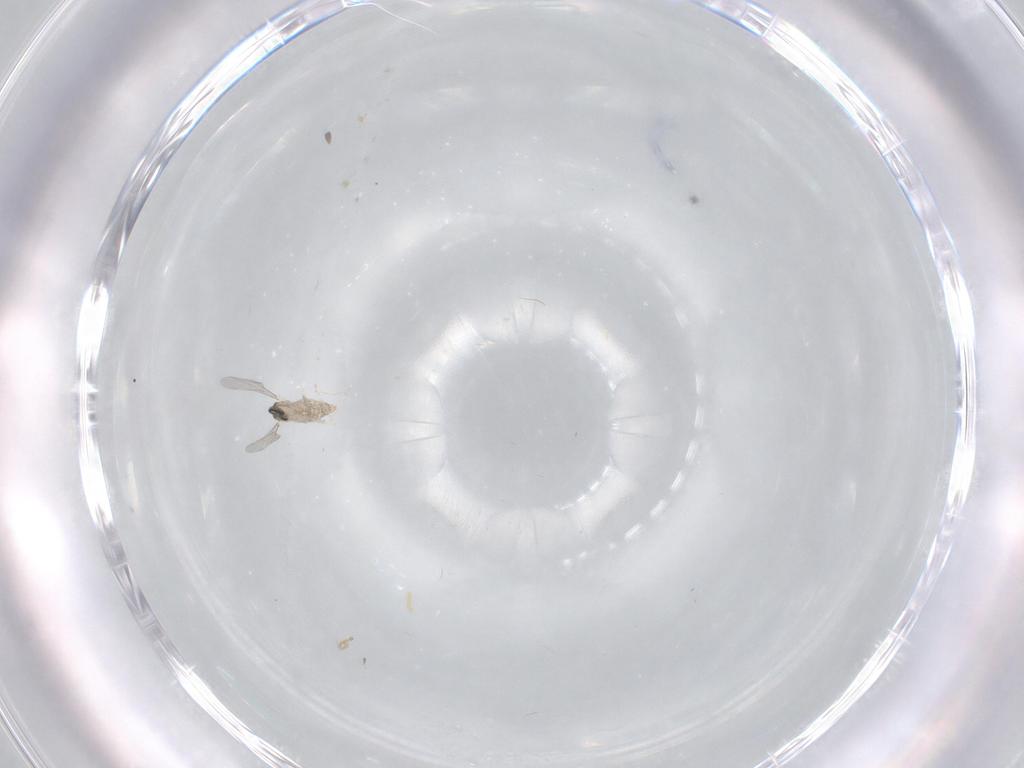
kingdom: Animalia
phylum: Arthropoda
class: Insecta
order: Diptera
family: Cecidomyiidae
